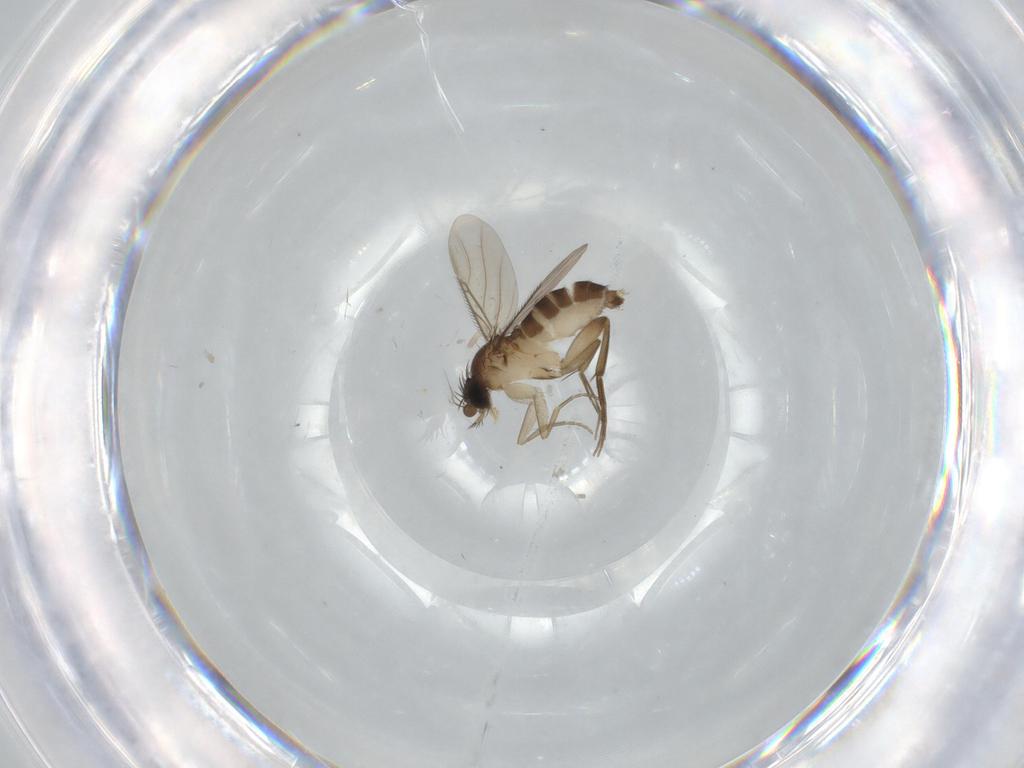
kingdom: Animalia
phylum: Arthropoda
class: Insecta
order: Diptera
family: Phoridae
